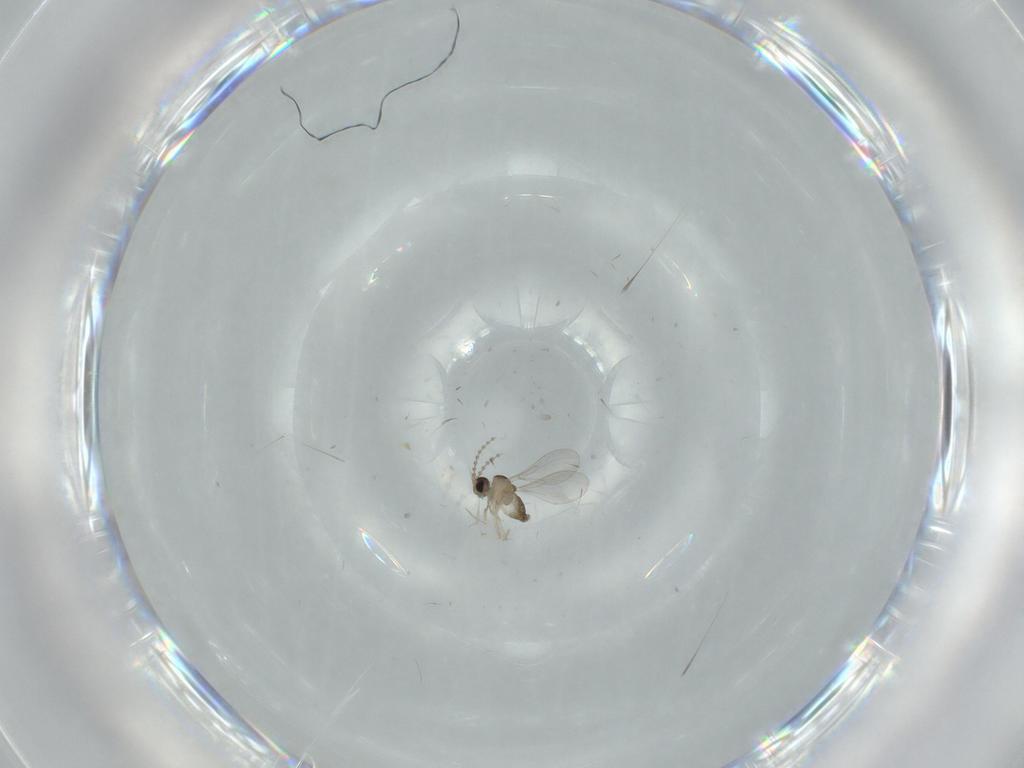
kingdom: Animalia
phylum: Arthropoda
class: Insecta
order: Diptera
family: Cecidomyiidae
